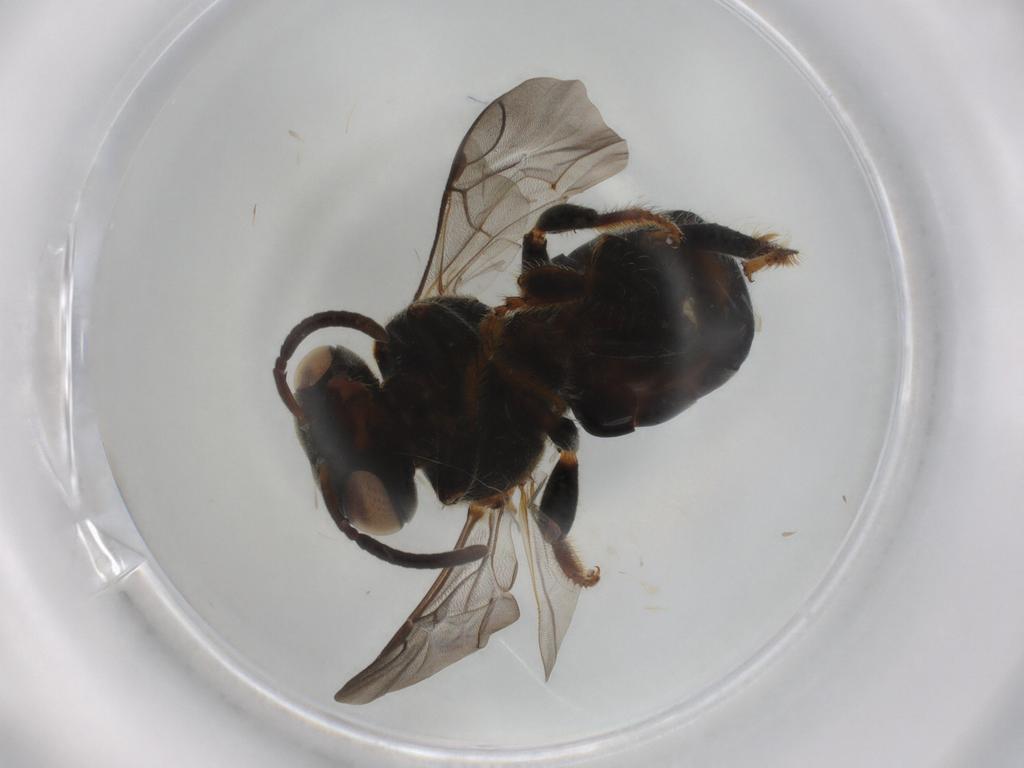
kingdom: Animalia
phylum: Arthropoda
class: Insecta
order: Hymenoptera
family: Apidae
